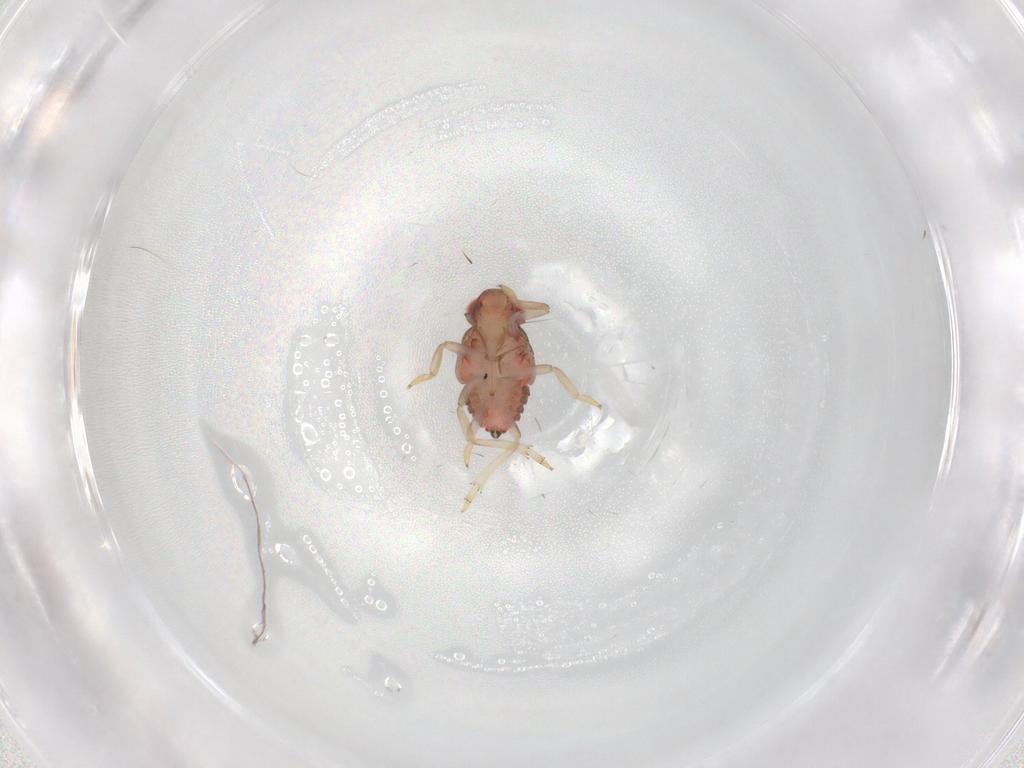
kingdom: Animalia
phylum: Arthropoda
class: Insecta
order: Hemiptera
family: Issidae
